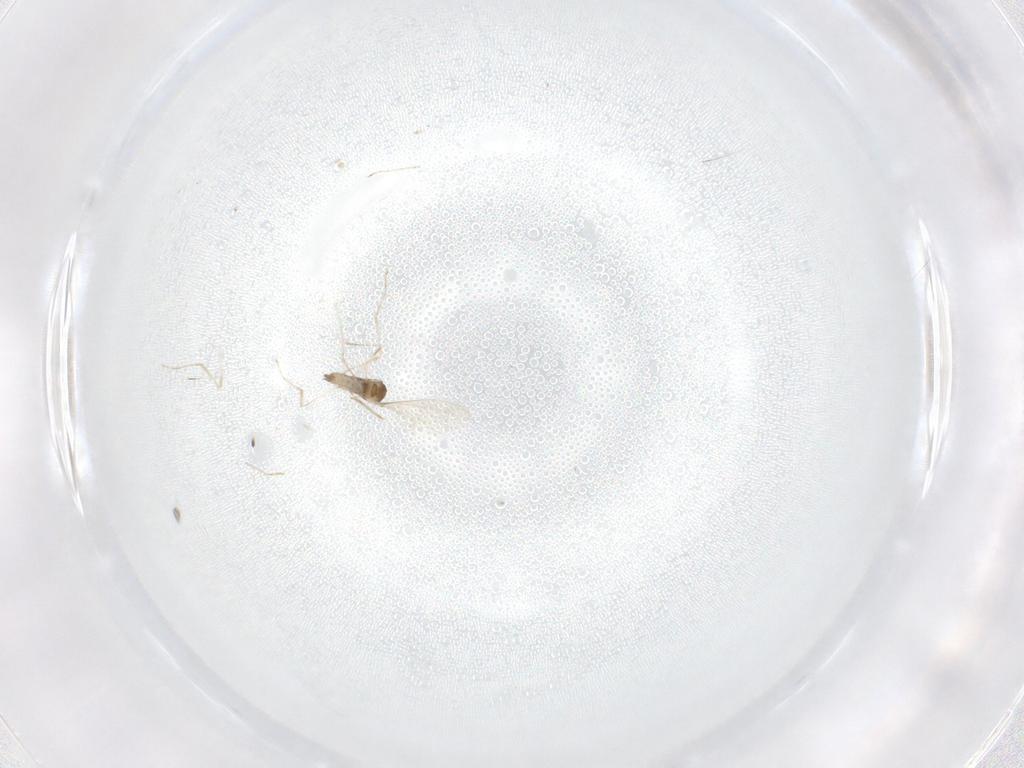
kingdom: Animalia
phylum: Arthropoda
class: Insecta
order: Diptera
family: Cecidomyiidae
